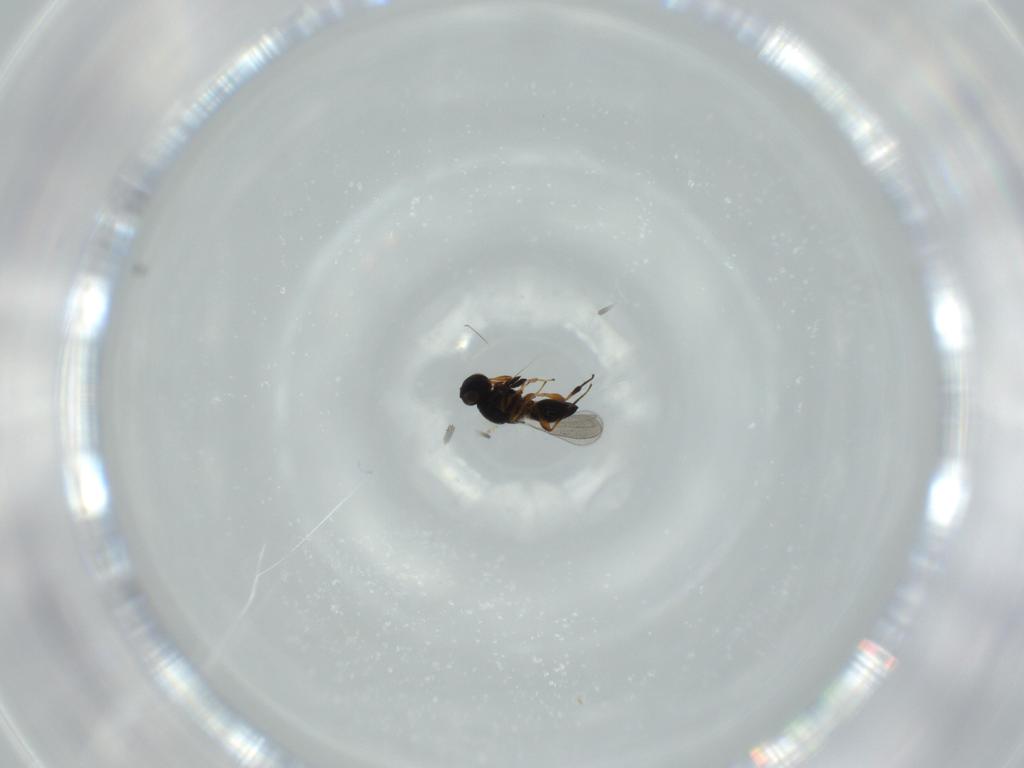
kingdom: Animalia
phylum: Arthropoda
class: Insecta
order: Hymenoptera
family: Platygastridae
